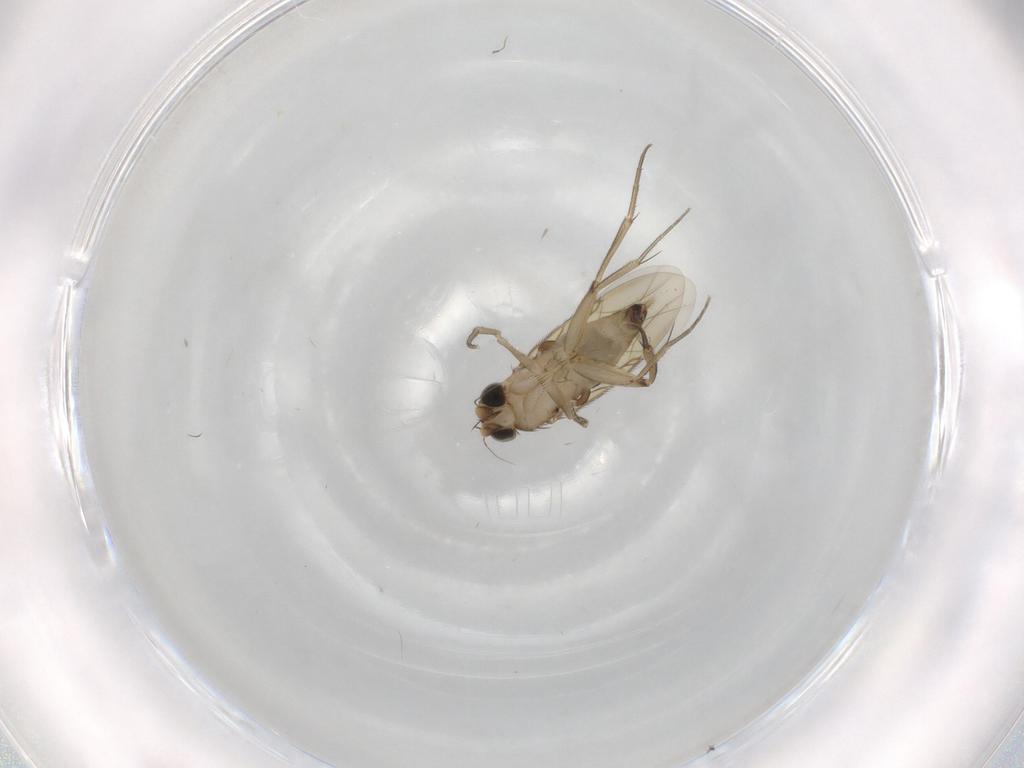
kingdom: Animalia
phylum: Arthropoda
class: Insecta
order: Diptera
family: Phoridae
